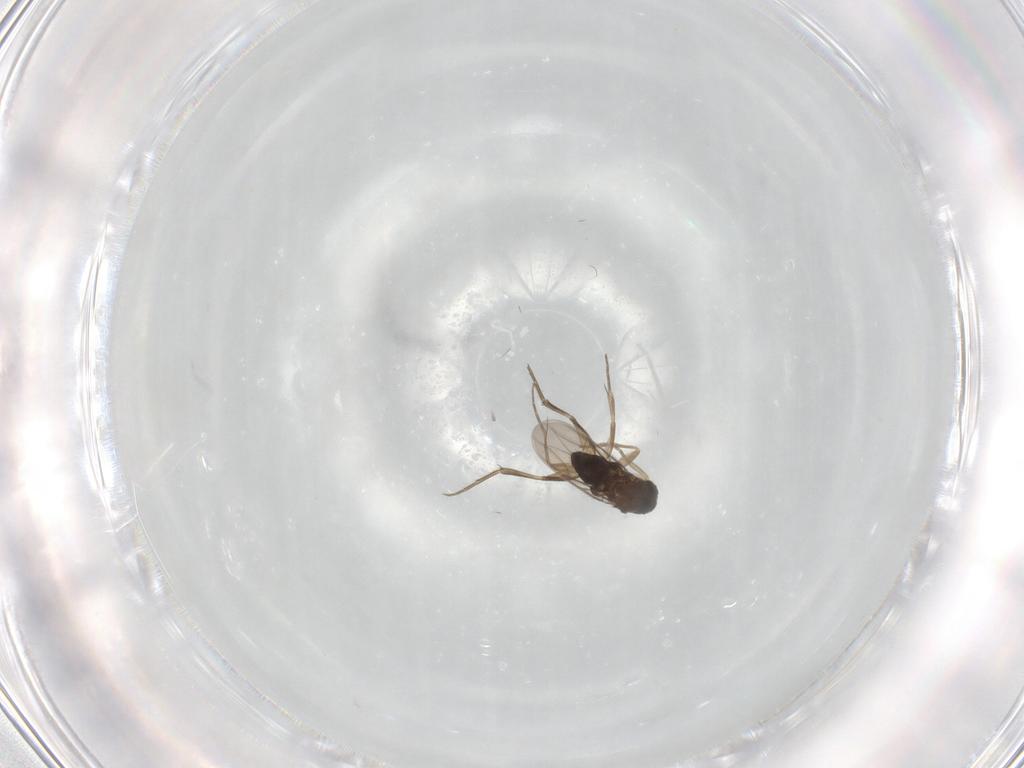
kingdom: Animalia
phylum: Arthropoda
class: Insecta
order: Diptera
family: Phoridae
